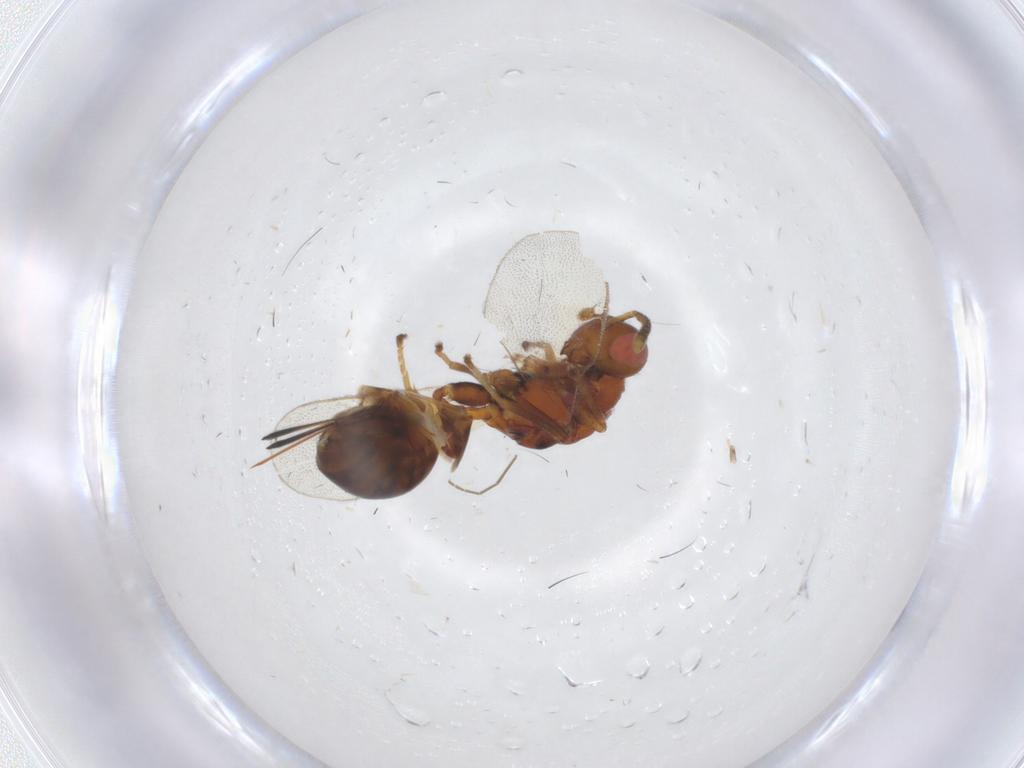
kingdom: Animalia
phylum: Arthropoda
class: Insecta
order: Hymenoptera
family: Megastigmidae
